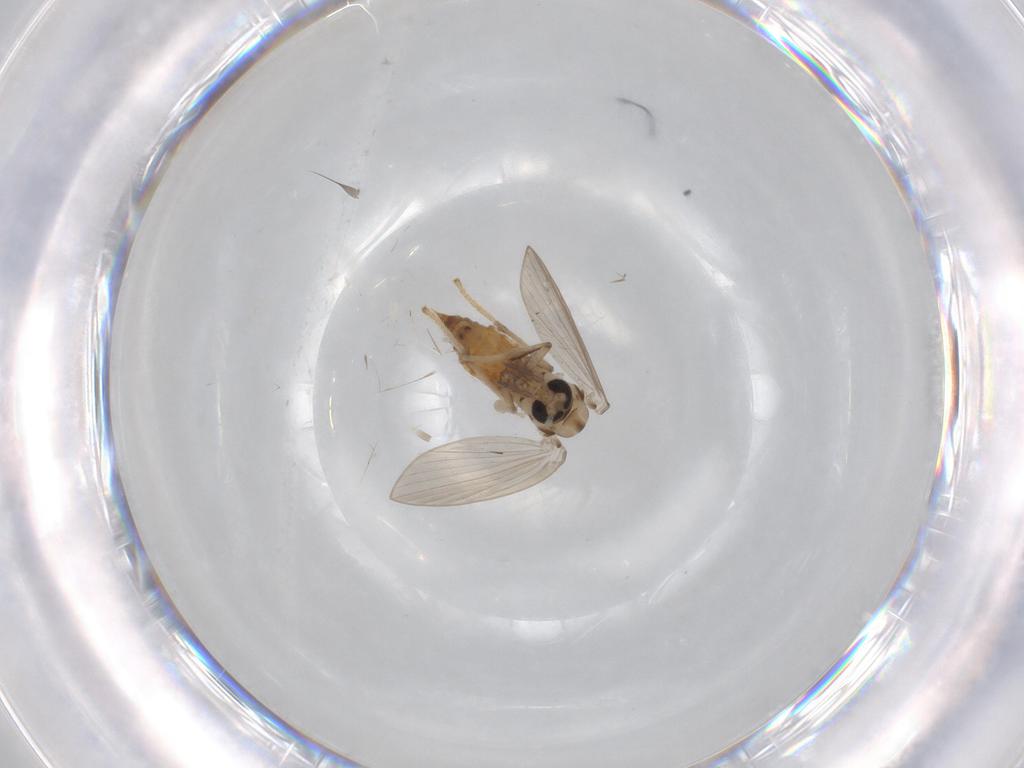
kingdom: Animalia
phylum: Arthropoda
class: Insecta
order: Diptera
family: Psychodidae
